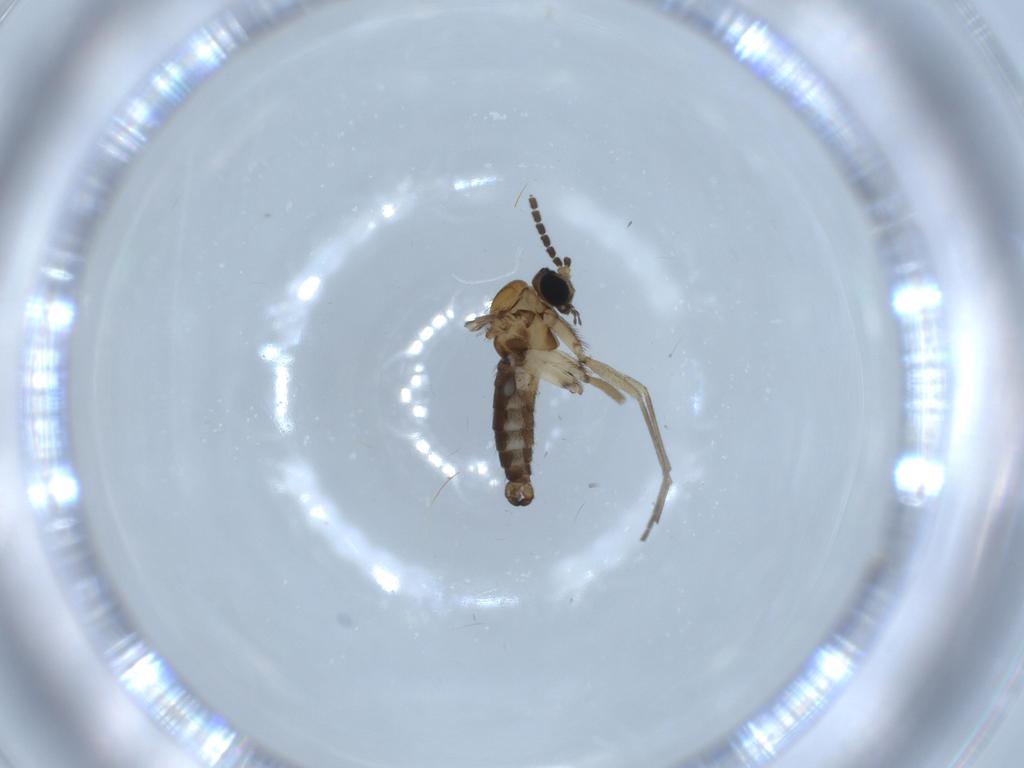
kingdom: Animalia
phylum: Arthropoda
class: Insecta
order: Diptera
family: Sciaridae
